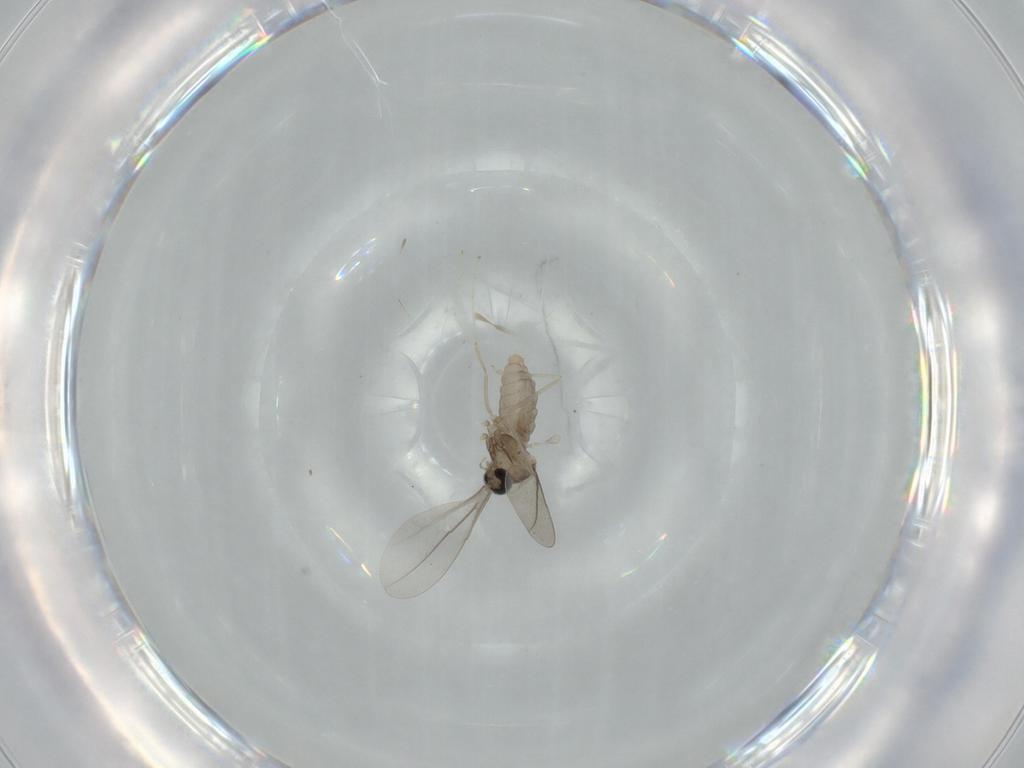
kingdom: Animalia
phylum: Arthropoda
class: Insecta
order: Diptera
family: Cecidomyiidae
